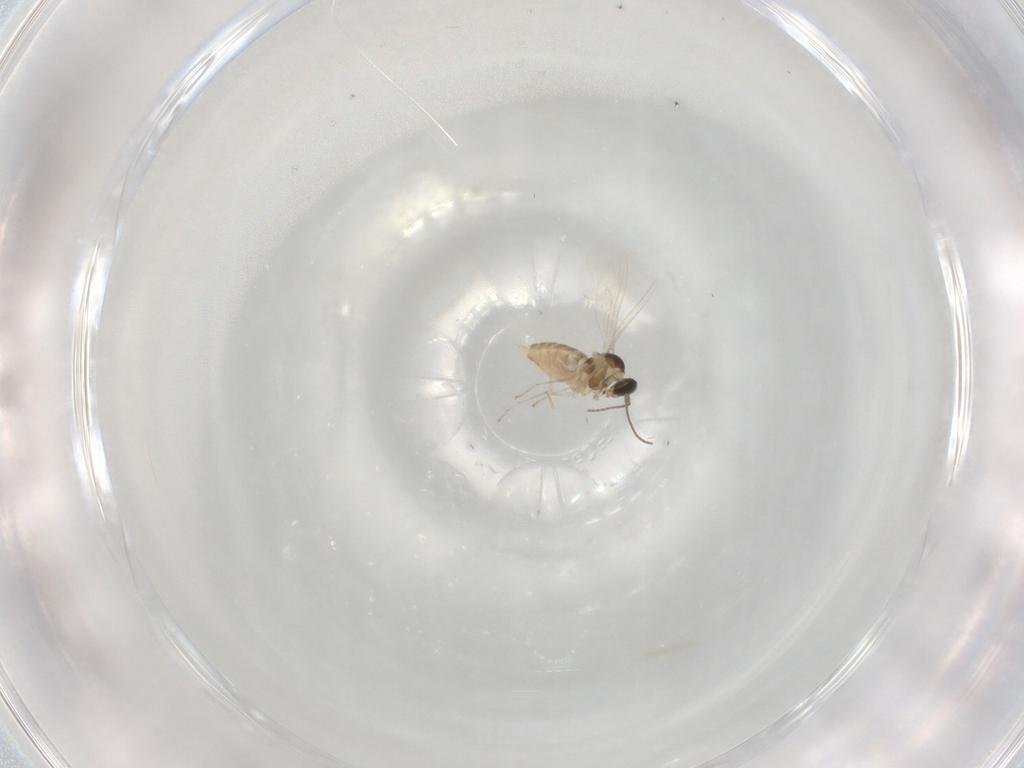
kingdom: Animalia
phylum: Arthropoda
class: Insecta
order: Diptera
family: Cecidomyiidae
